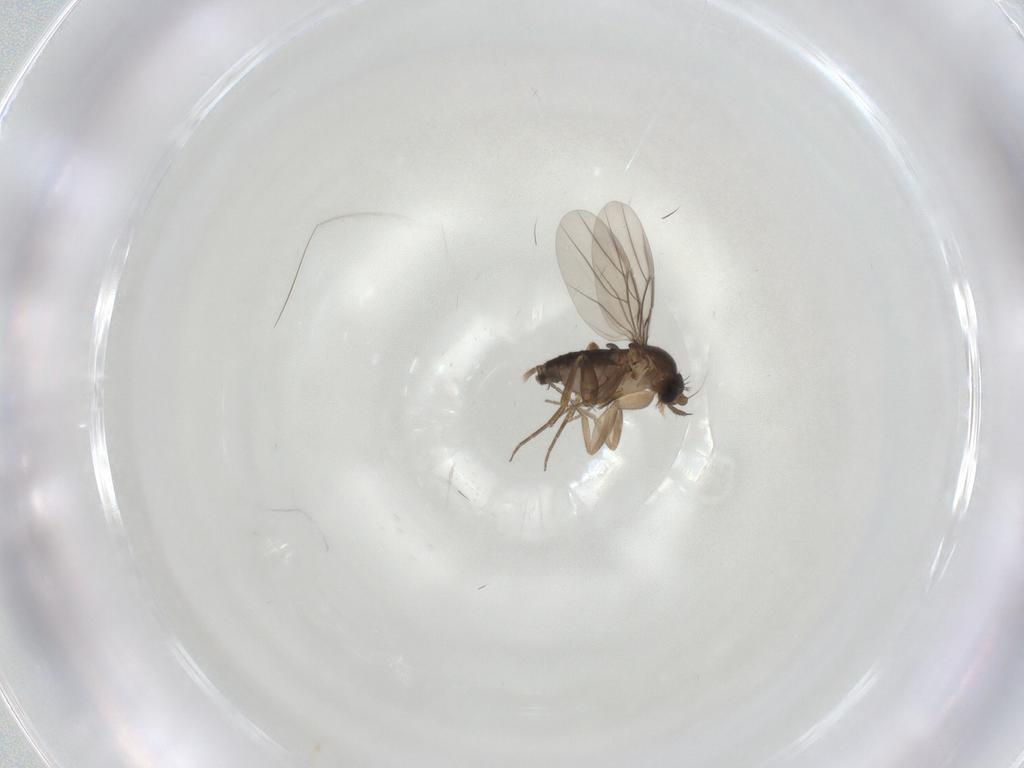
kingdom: Animalia
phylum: Arthropoda
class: Insecta
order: Diptera
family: Phoridae
